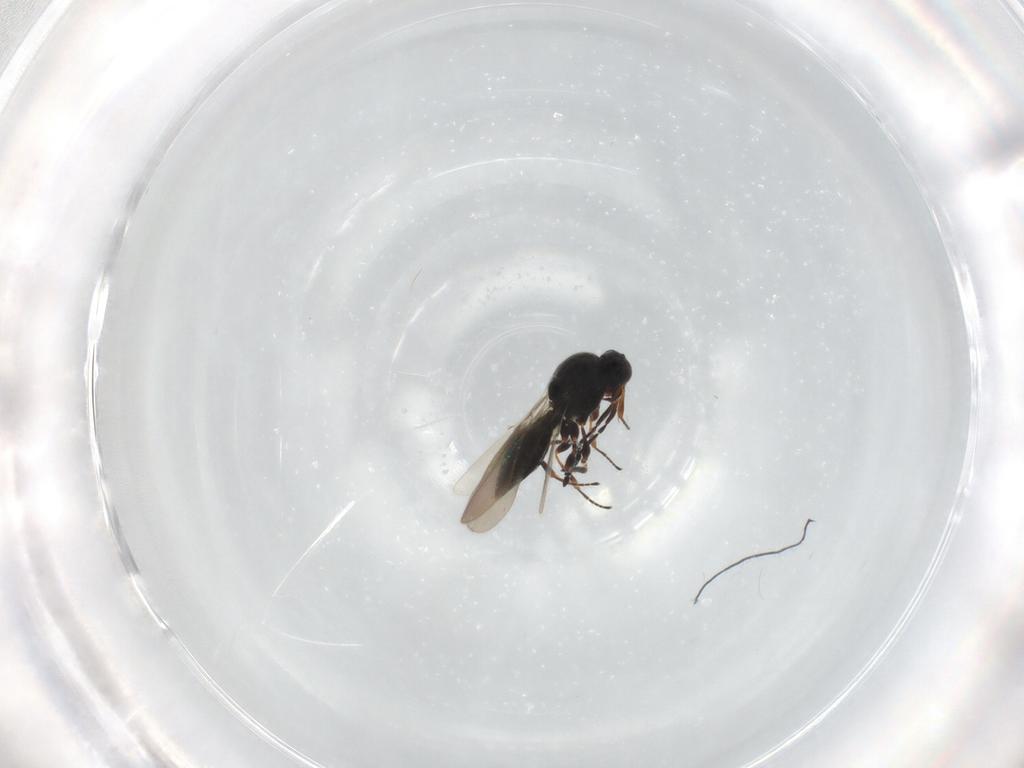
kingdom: Animalia
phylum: Arthropoda
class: Insecta
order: Hymenoptera
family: Platygastridae
